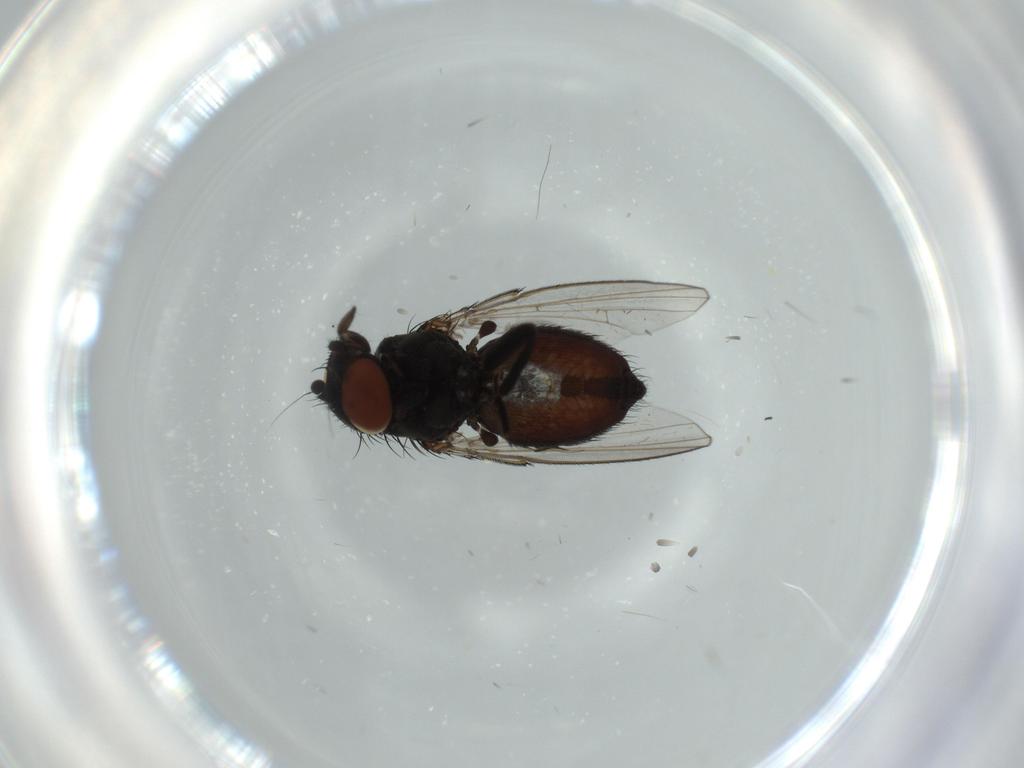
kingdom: Animalia
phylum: Arthropoda
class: Insecta
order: Diptera
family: Milichiidae
